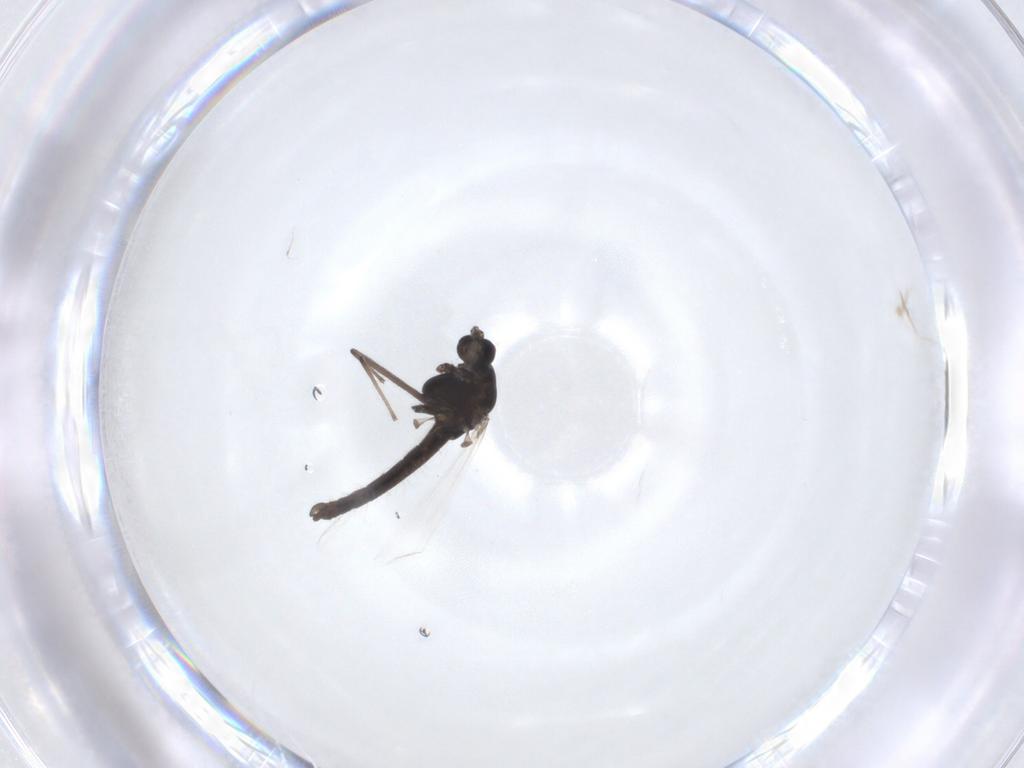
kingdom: Animalia
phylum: Arthropoda
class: Insecta
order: Diptera
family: Chironomidae
